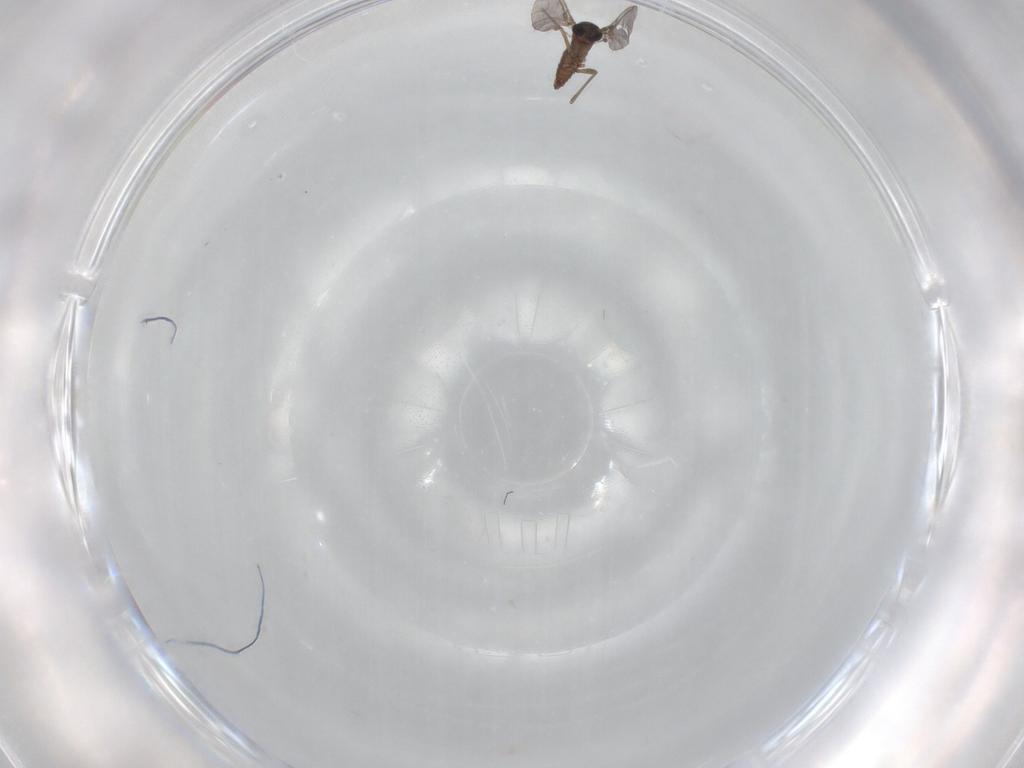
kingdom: Animalia
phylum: Arthropoda
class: Insecta
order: Diptera
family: Sciaridae
